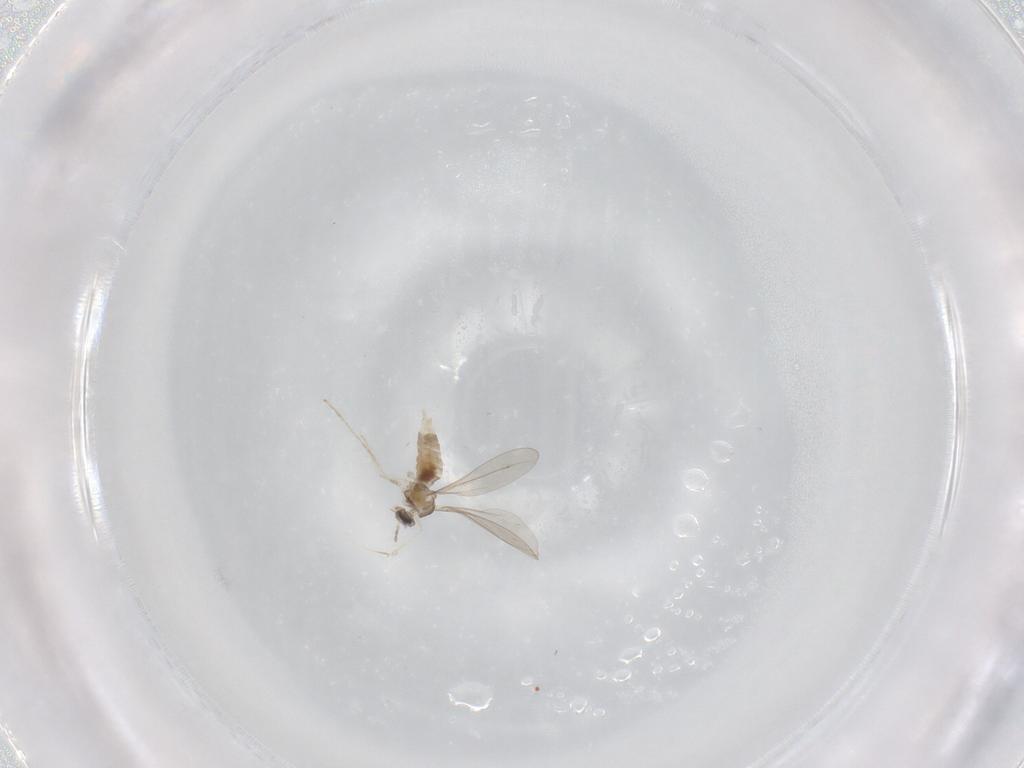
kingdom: Animalia
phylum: Arthropoda
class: Insecta
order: Diptera
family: Cecidomyiidae
